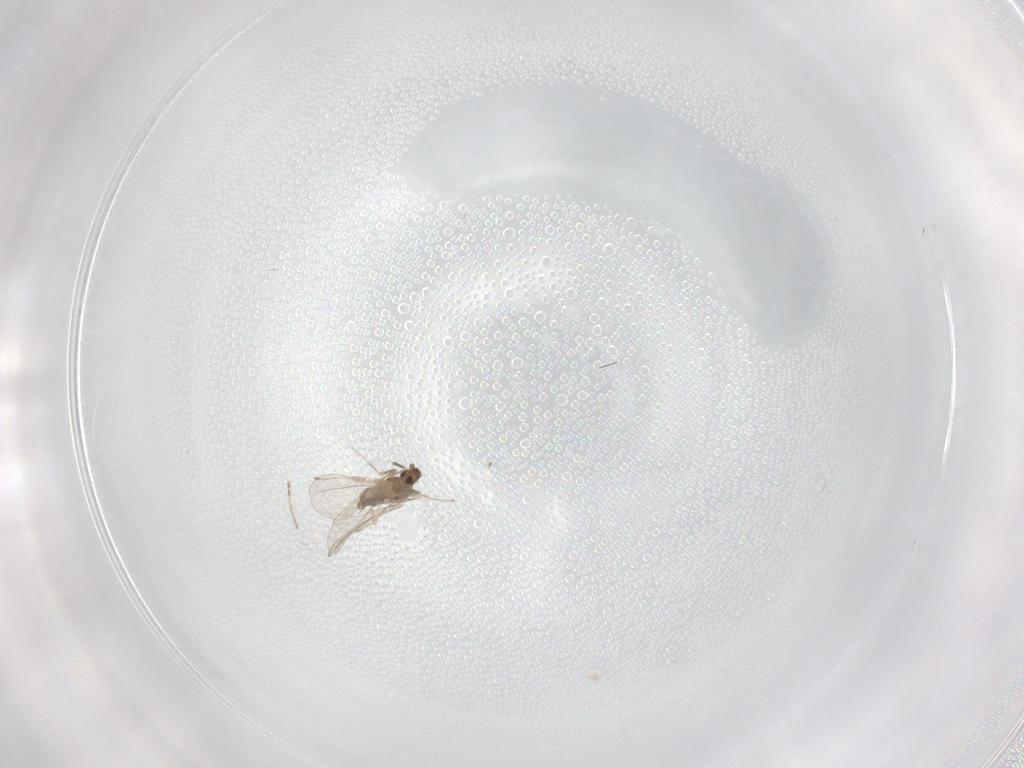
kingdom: Animalia
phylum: Arthropoda
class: Insecta
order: Diptera
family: Cecidomyiidae
